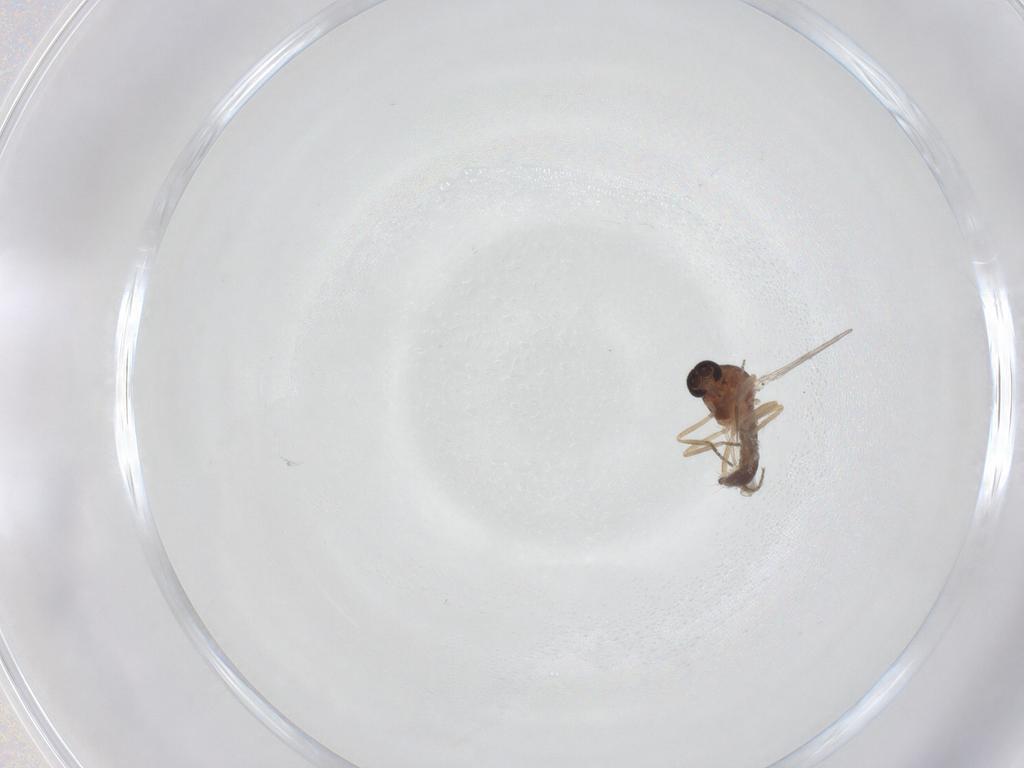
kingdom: Animalia
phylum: Arthropoda
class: Insecta
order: Diptera
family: Ceratopogonidae
